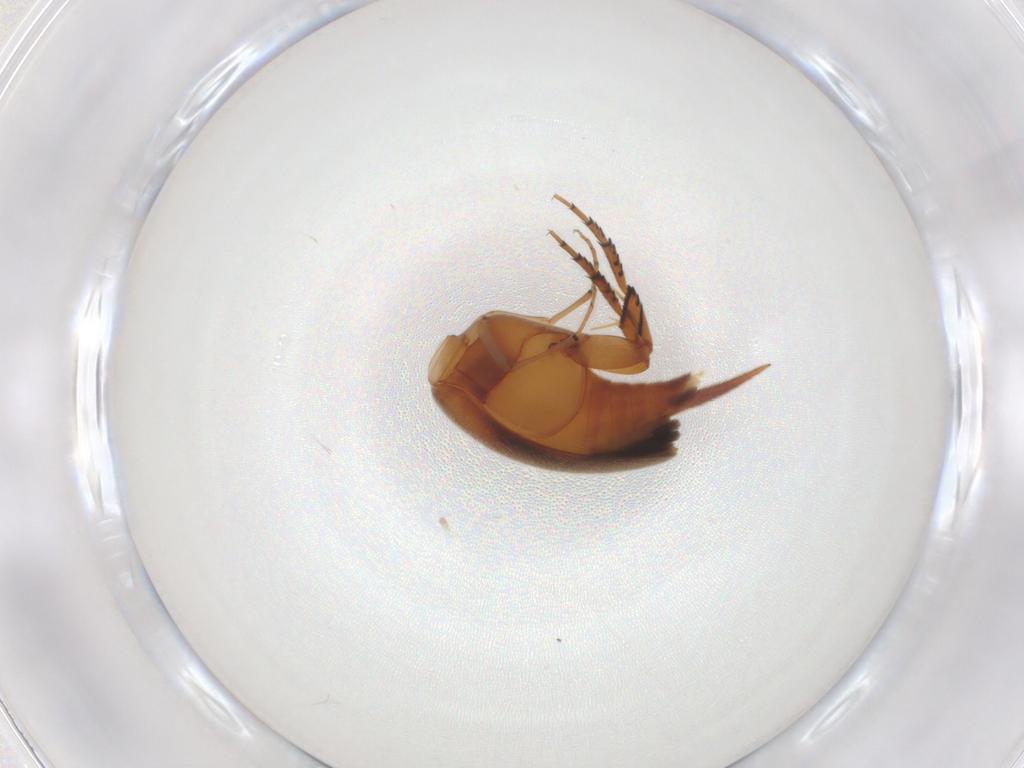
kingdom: Animalia
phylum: Arthropoda
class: Insecta
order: Coleoptera
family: Mordellidae
